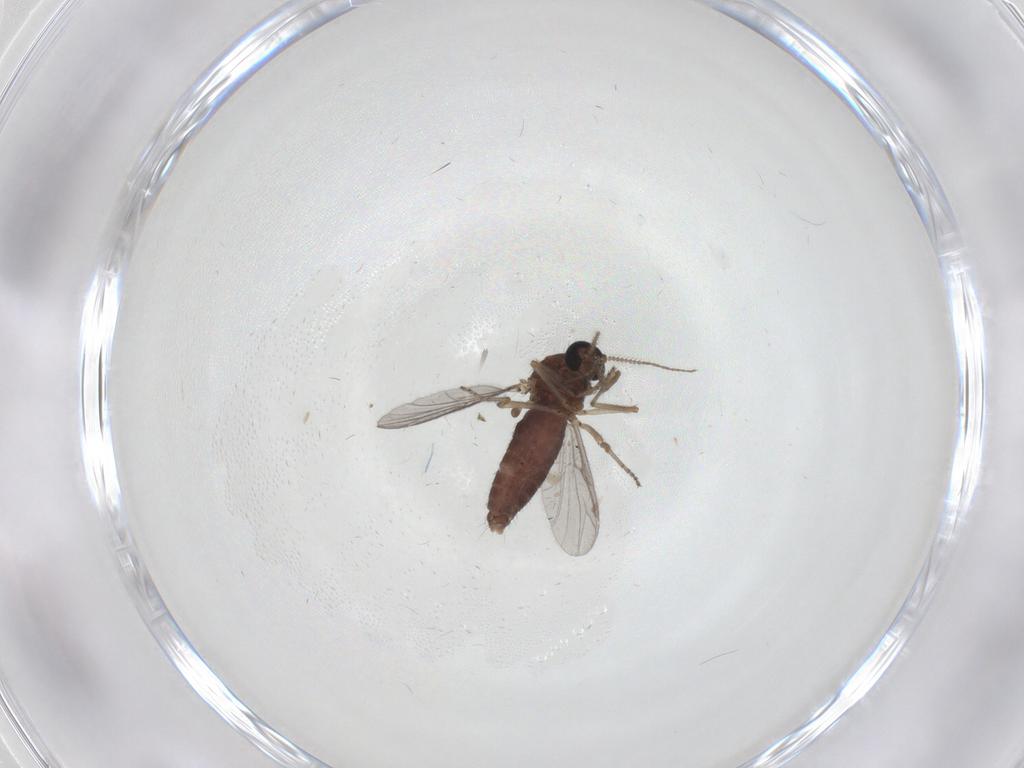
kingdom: Animalia
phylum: Arthropoda
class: Insecta
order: Diptera
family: Ceratopogonidae
